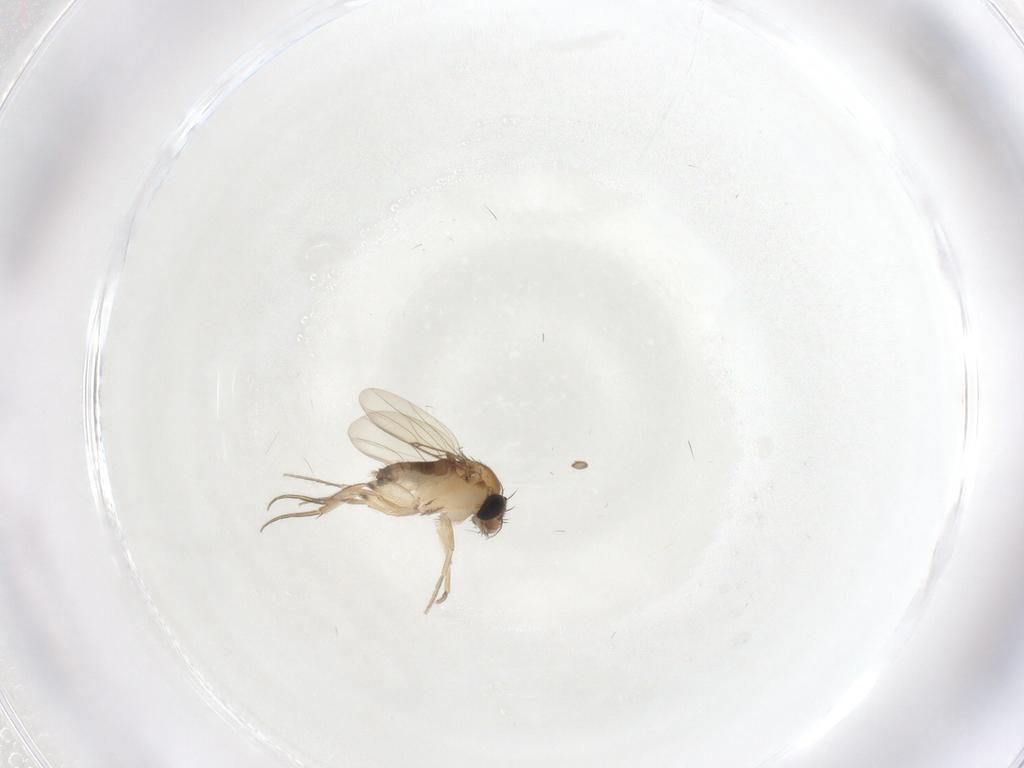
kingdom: Animalia
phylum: Arthropoda
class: Insecta
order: Diptera
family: Phoridae
